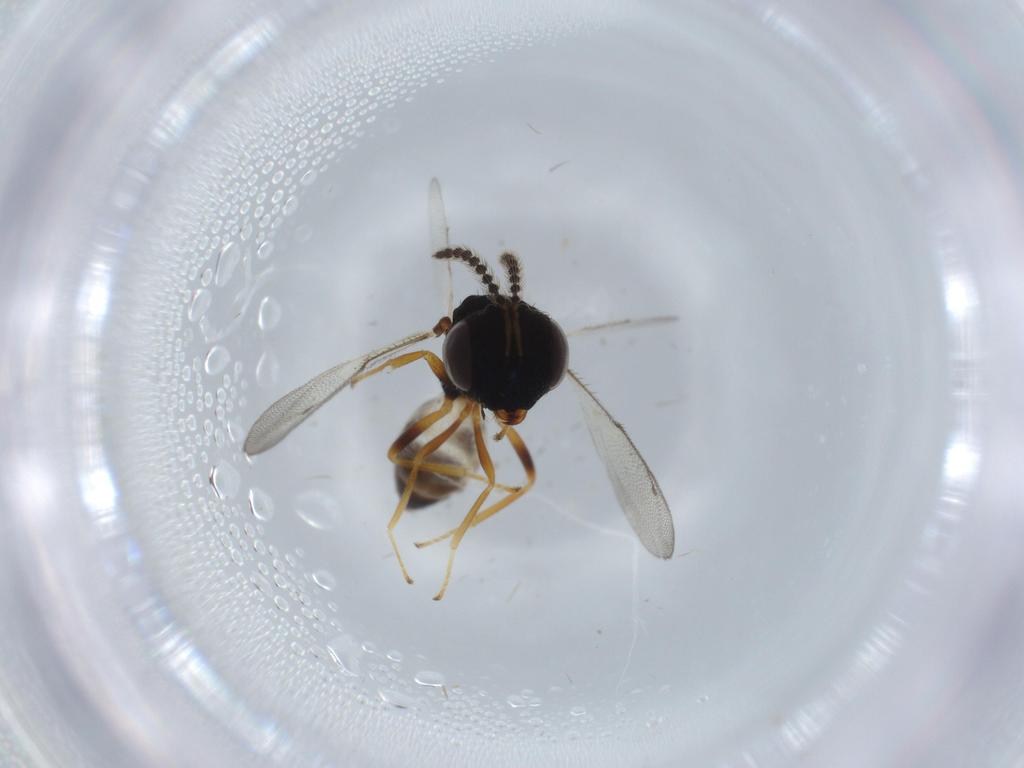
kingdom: Animalia
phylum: Arthropoda
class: Insecta
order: Hymenoptera
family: Pteromalidae
